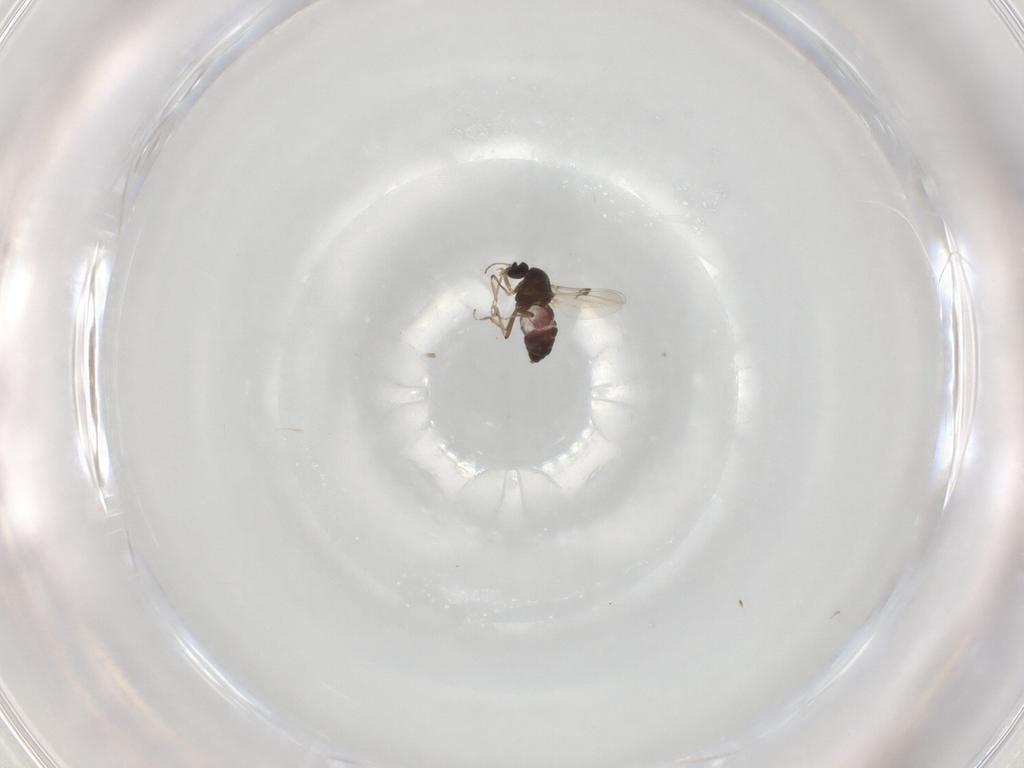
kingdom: Animalia
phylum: Arthropoda
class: Insecta
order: Diptera
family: Ceratopogonidae
